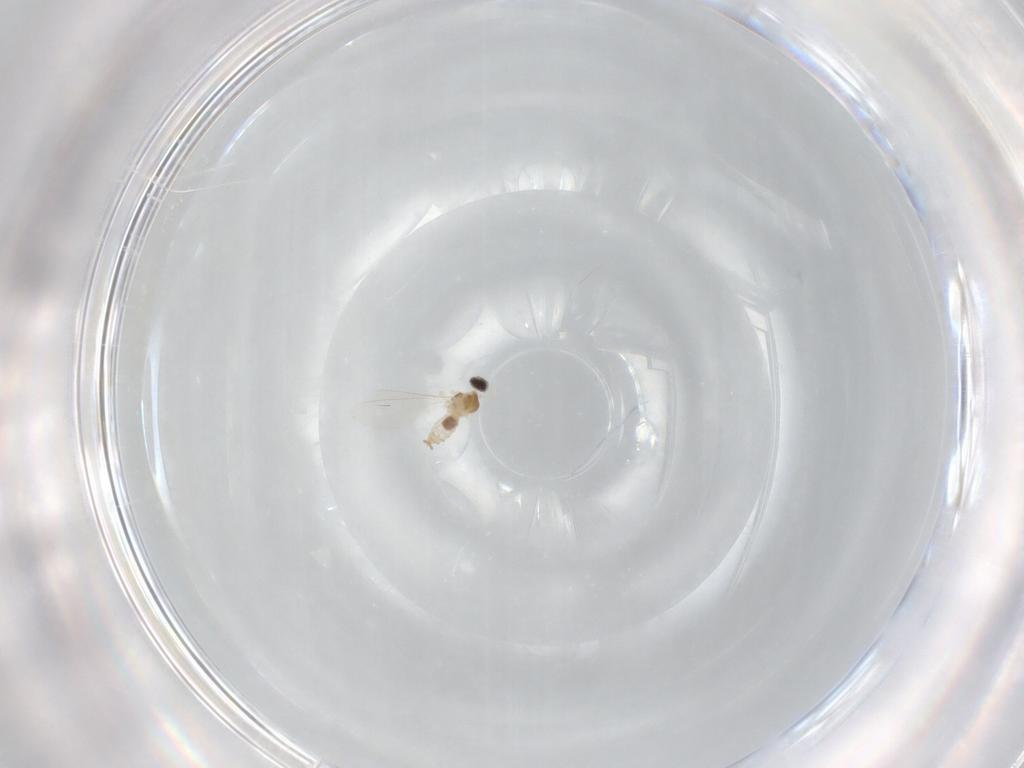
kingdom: Animalia
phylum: Arthropoda
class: Insecta
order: Diptera
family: Cecidomyiidae
